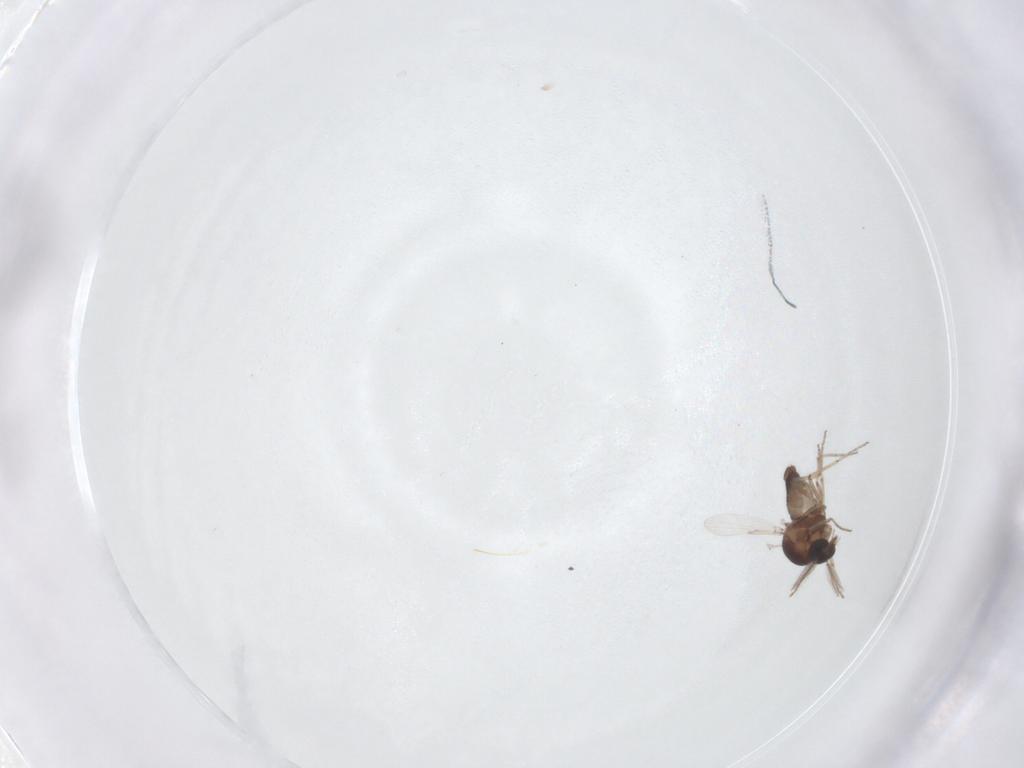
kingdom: Animalia
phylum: Arthropoda
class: Insecta
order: Diptera
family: Ceratopogonidae
